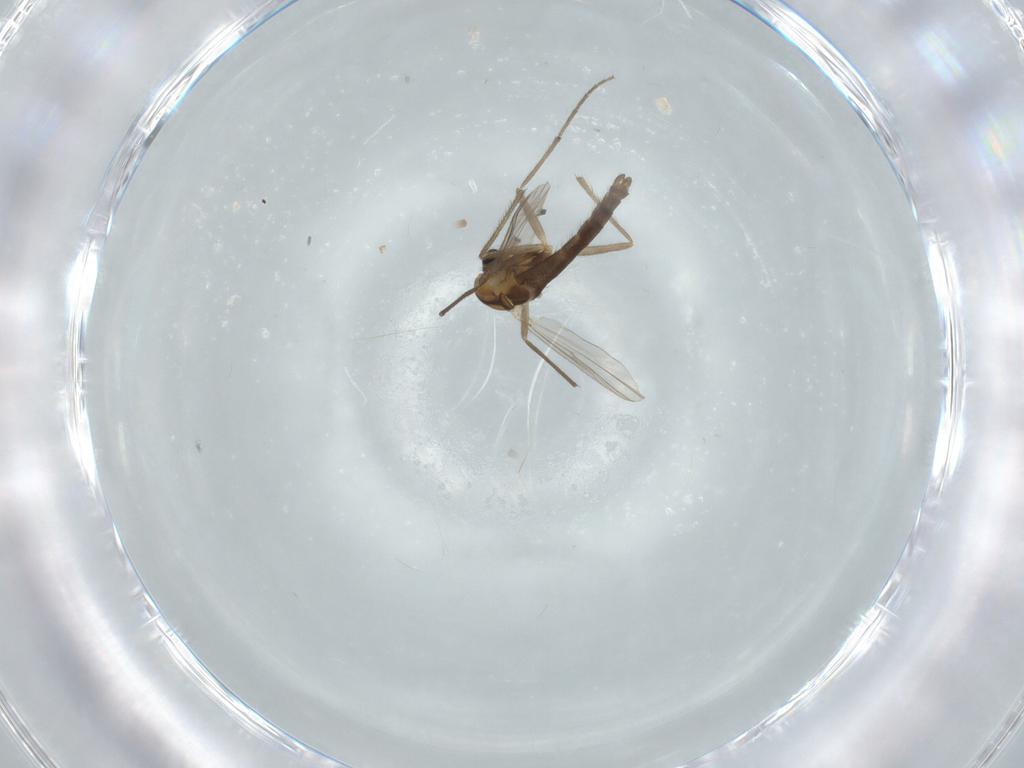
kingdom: Animalia
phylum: Arthropoda
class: Insecta
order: Diptera
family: Chironomidae
